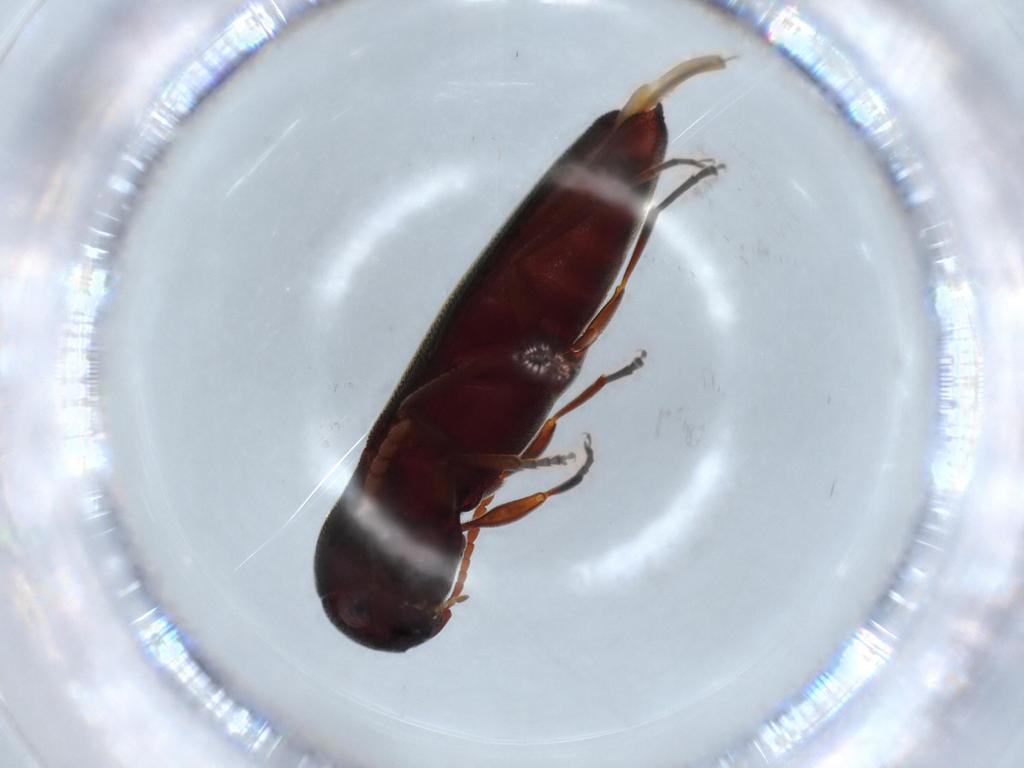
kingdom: Animalia
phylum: Arthropoda
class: Insecta
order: Coleoptera
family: Eucnemidae
